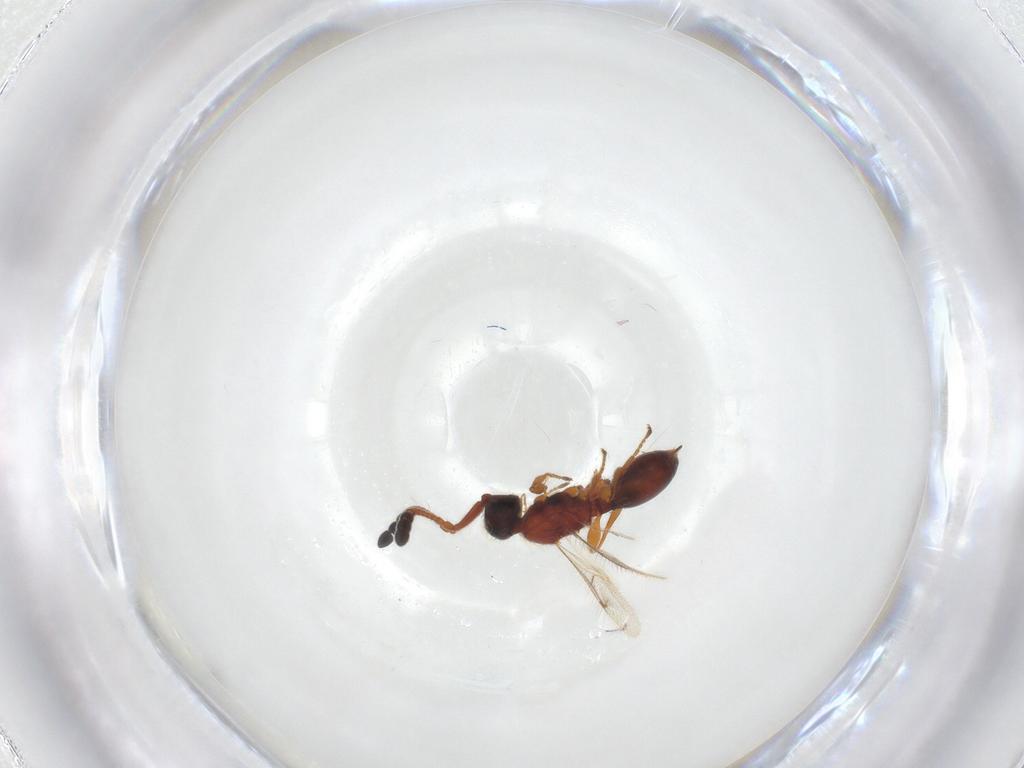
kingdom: Animalia
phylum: Arthropoda
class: Insecta
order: Hymenoptera
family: Diapriidae
